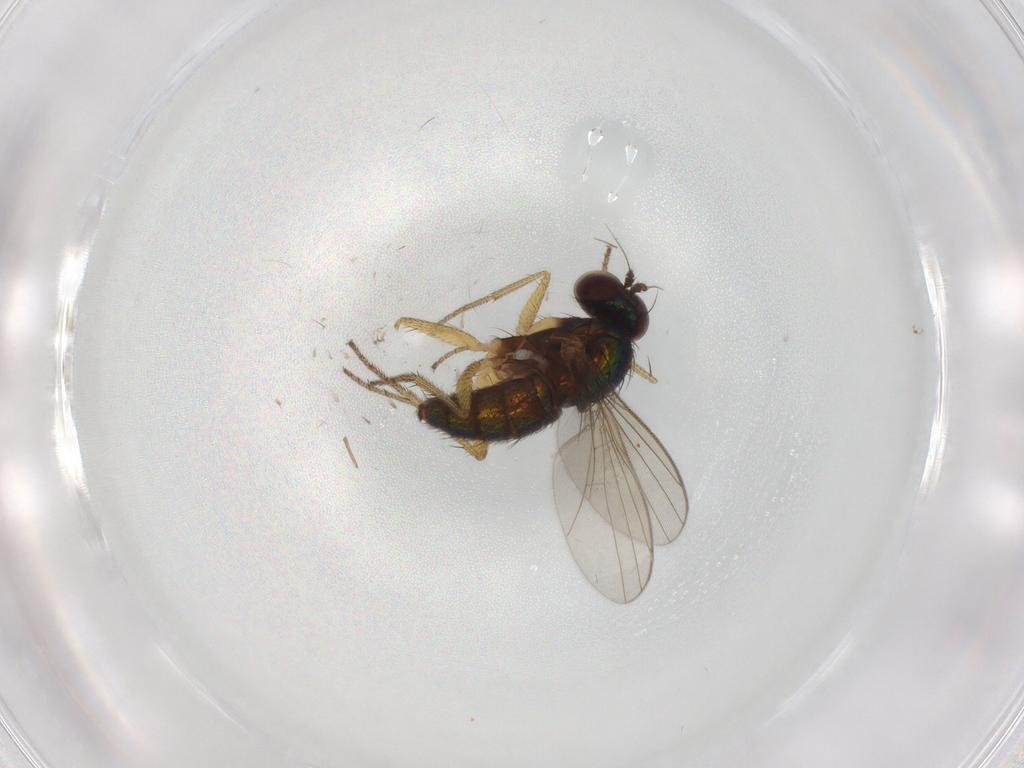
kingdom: Animalia
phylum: Arthropoda
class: Insecta
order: Diptera
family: Dolichopodidae
